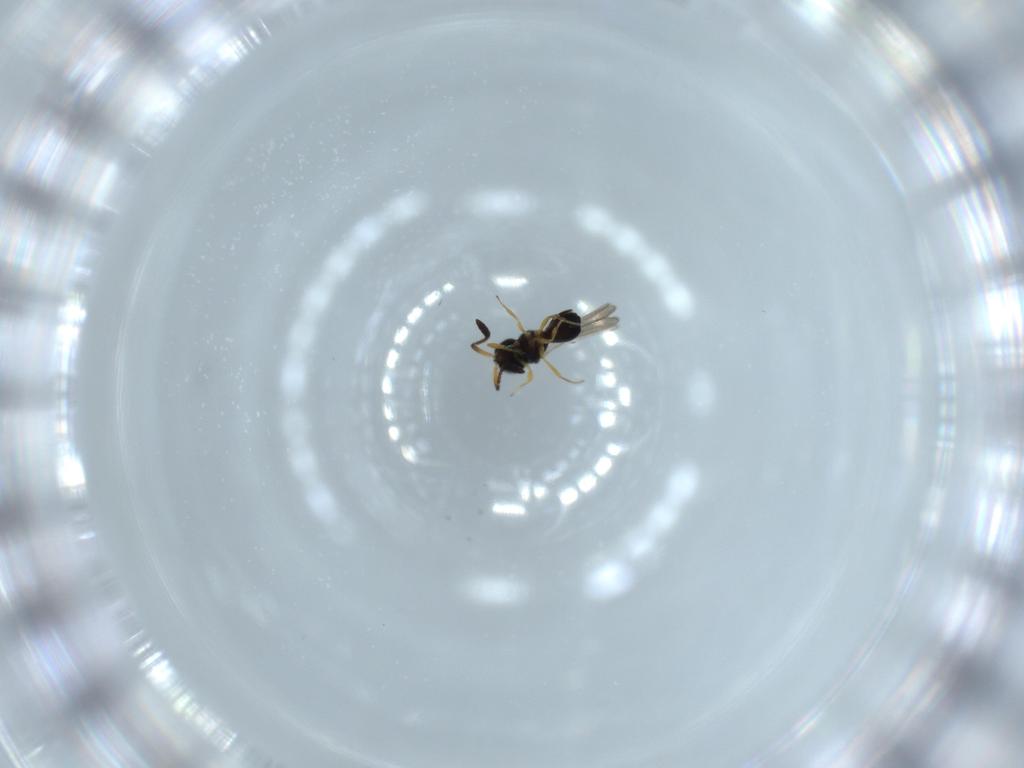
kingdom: Animalia
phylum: Arthropoda
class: Insecta
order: Hymenoptera
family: Scelionidae
